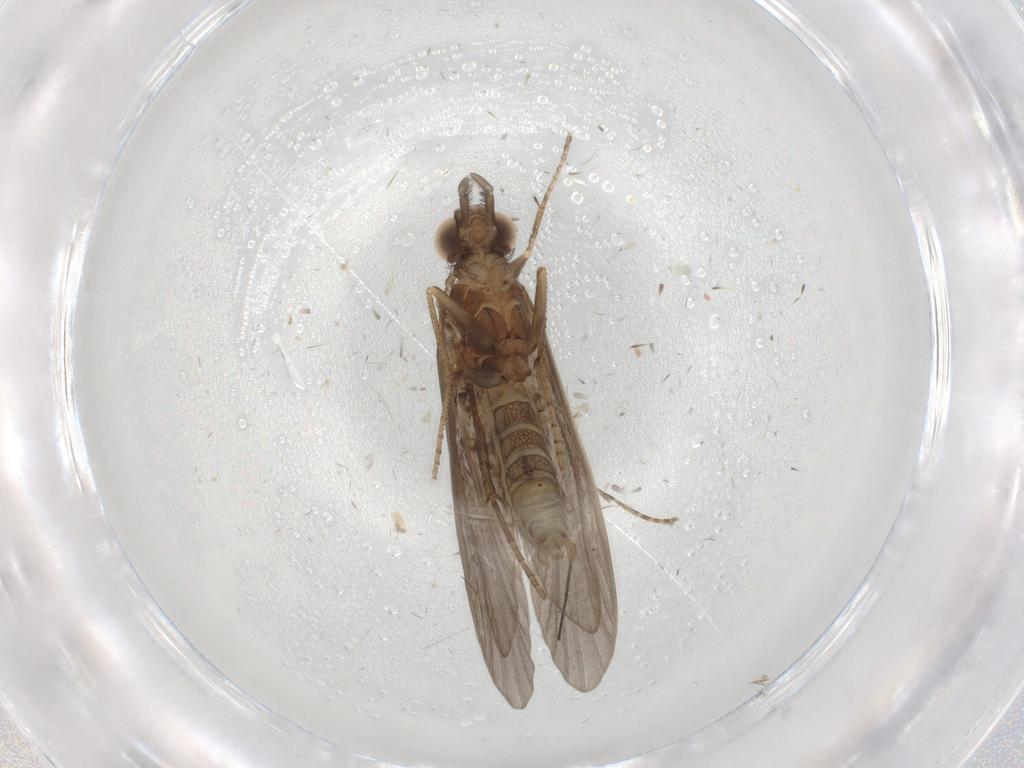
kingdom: Animalia
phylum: Arthropoda
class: Insecta
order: Trichoptera
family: Helicopsychidae
